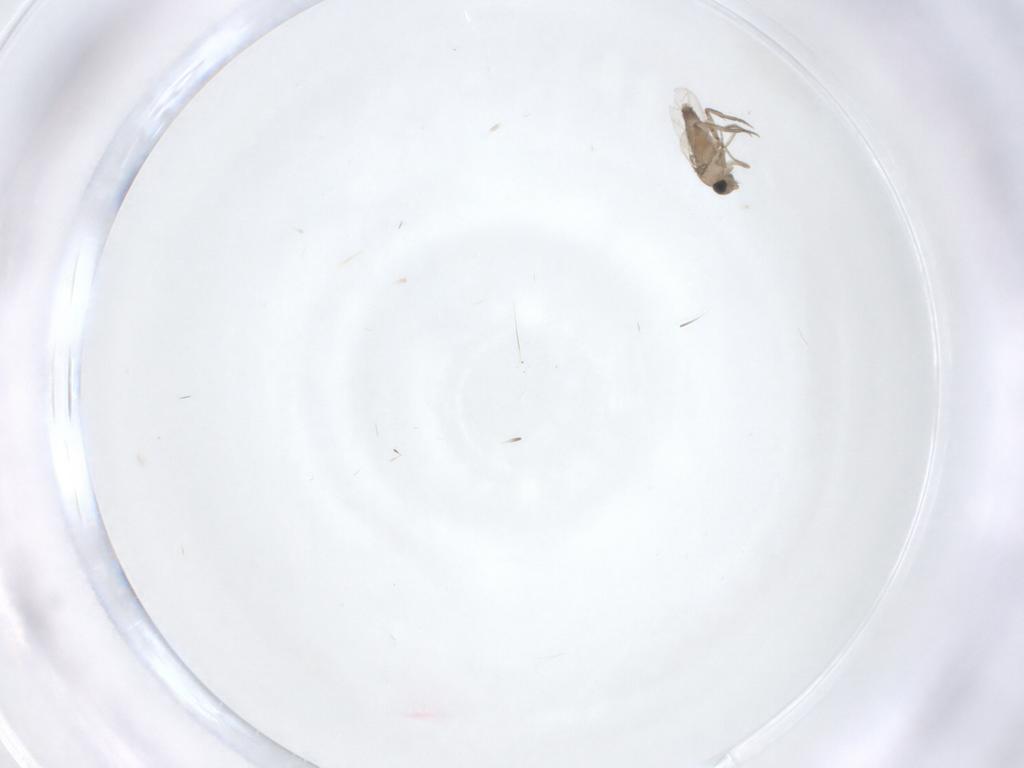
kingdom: Animalia
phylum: Arthropoda
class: Insecta
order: Diptera
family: Phoridae
